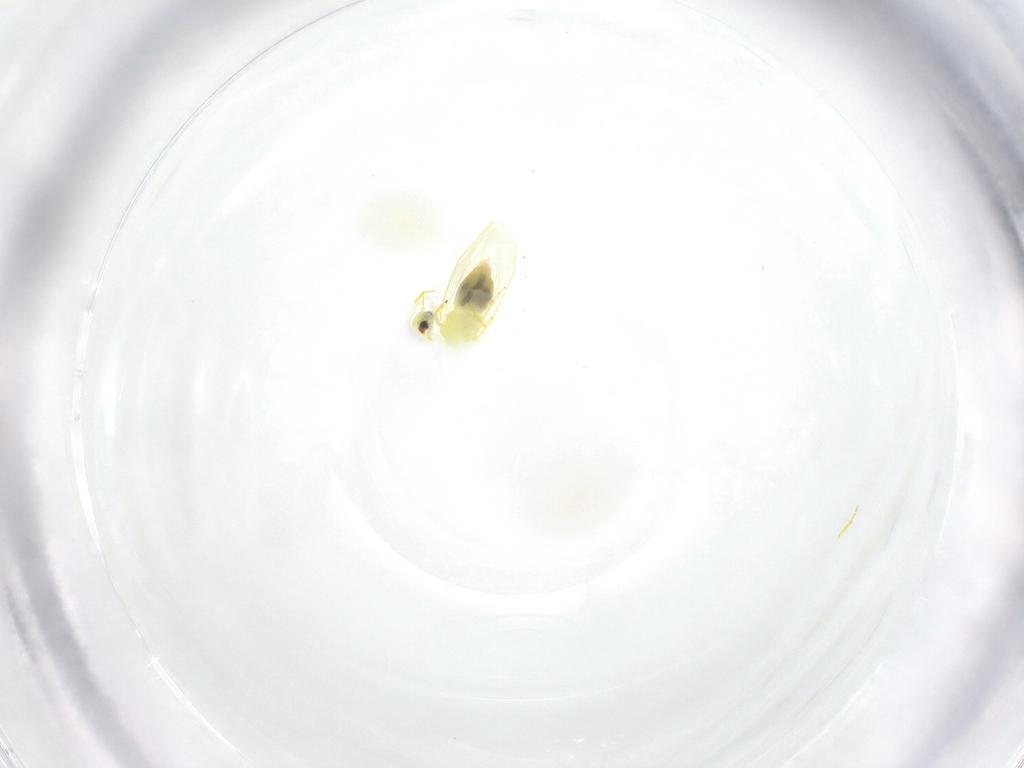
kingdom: Animalia
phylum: Arthropoda
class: Insecta
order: Hemiptera
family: Aleyrodidae
